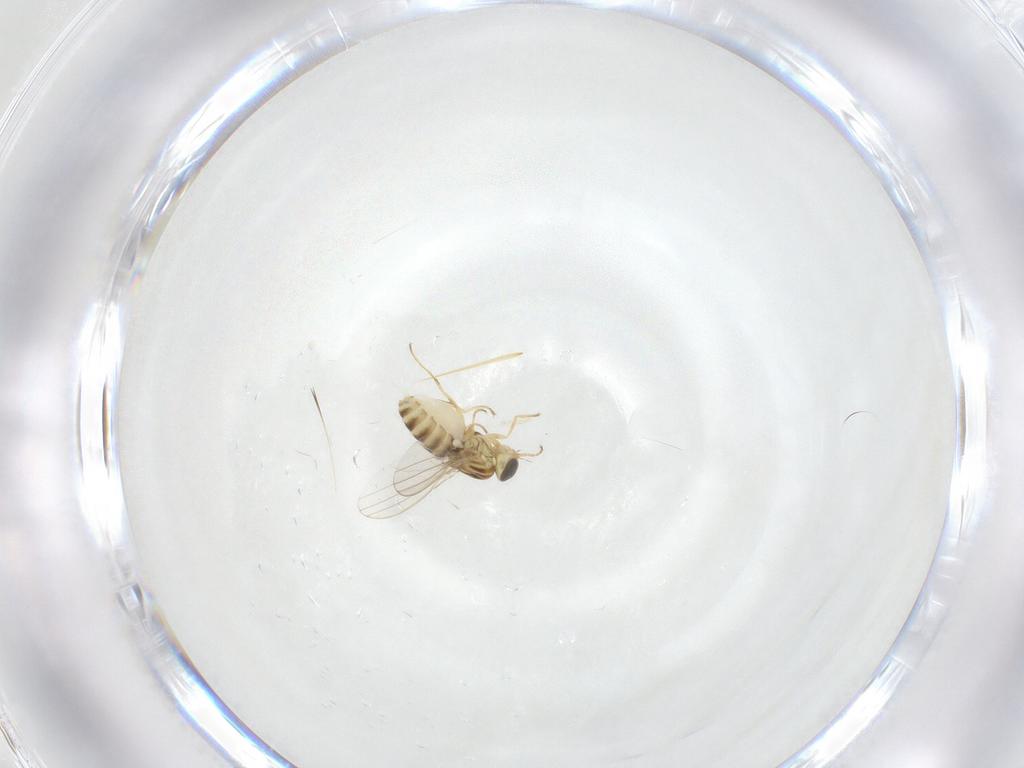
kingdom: Animalia
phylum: Arthropoda
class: Insecta
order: Diptera
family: Chyromyidae
